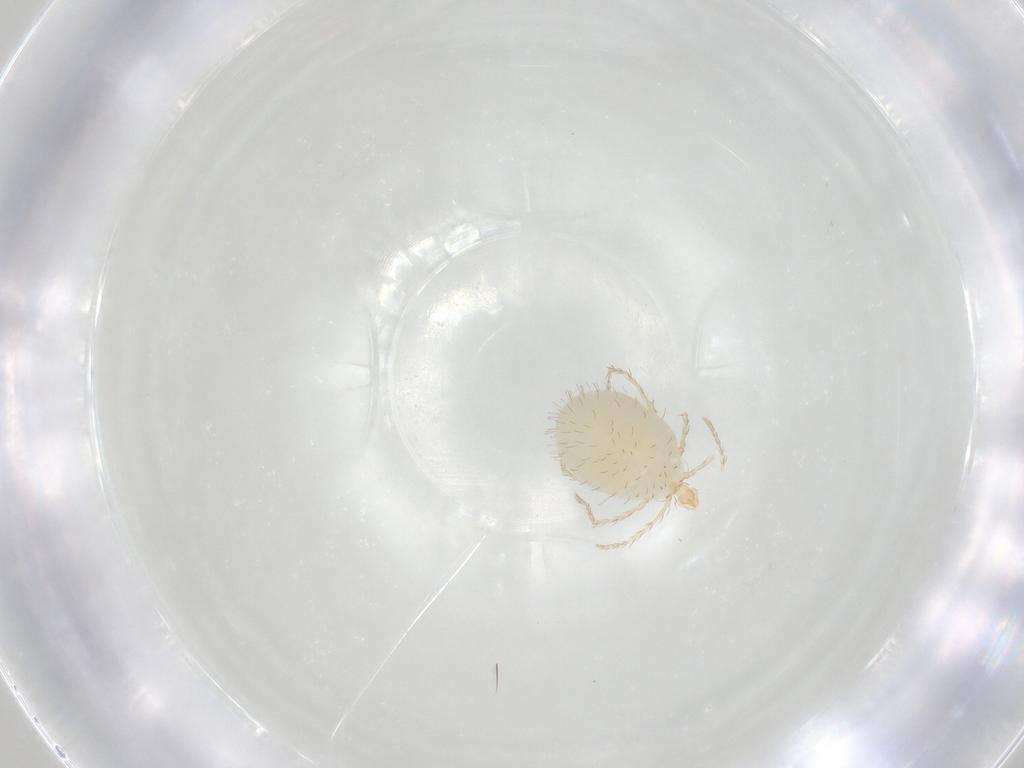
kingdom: Animalia
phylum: Arthropoda
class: Arachnida
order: Trombidiformes
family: Erythraeidae
